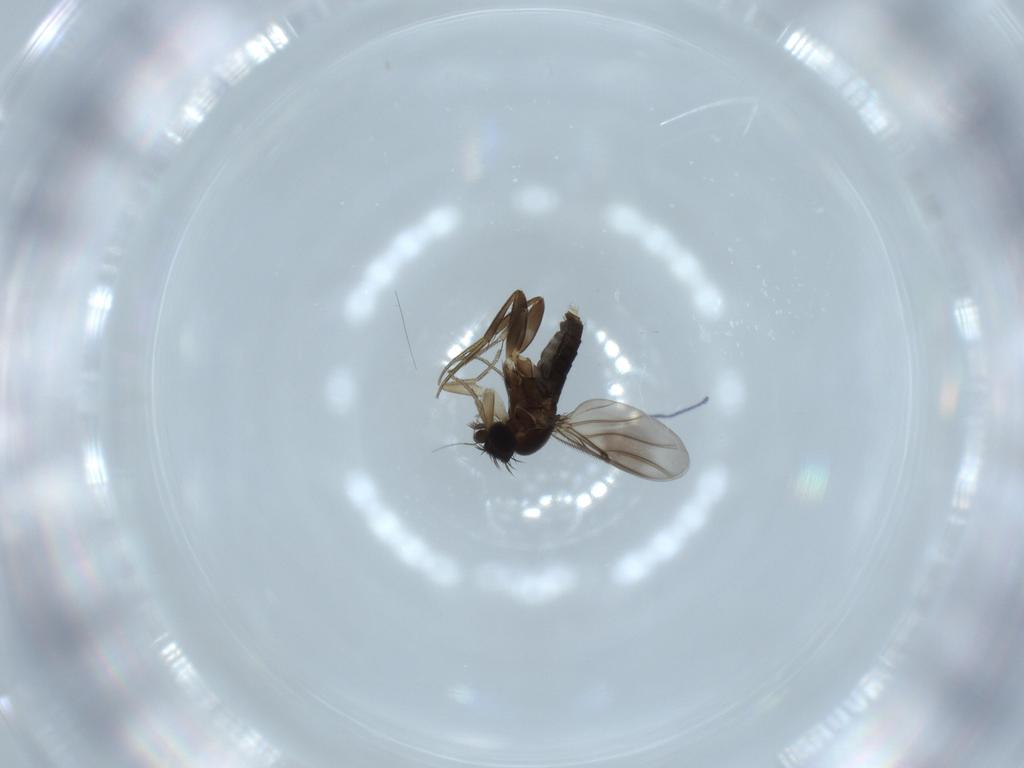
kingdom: Animalia
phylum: Arthropoda
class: Insecta
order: Diptera
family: Phoridae
